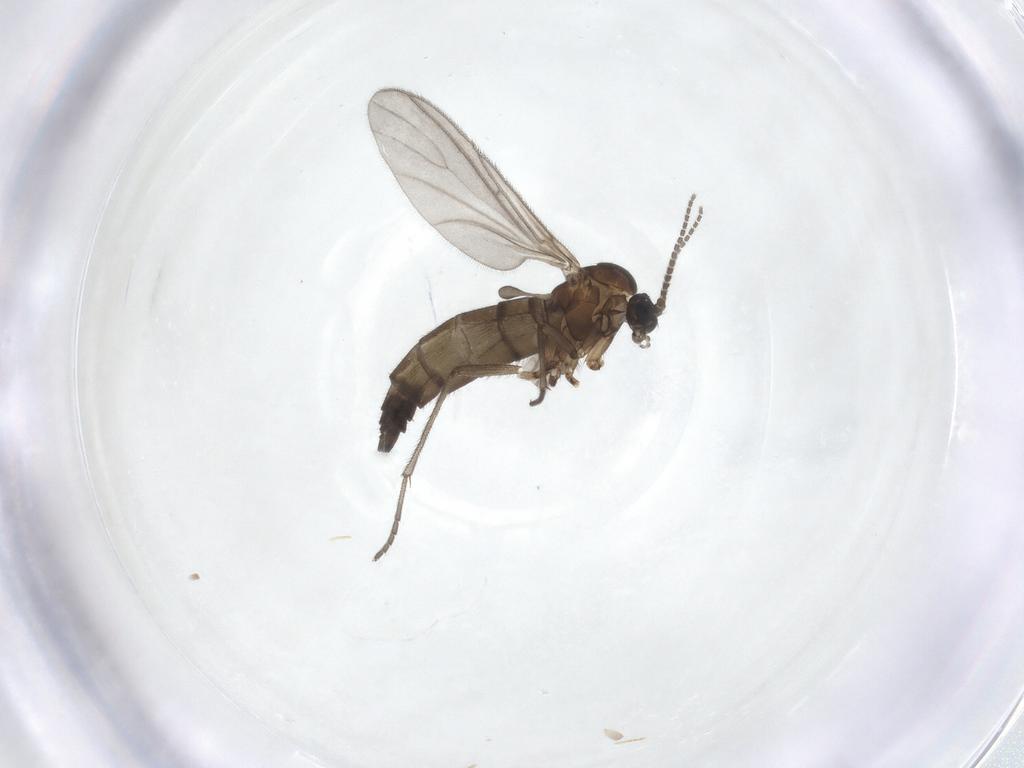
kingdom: Animalia
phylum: Arthropoda
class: Insecta
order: Diptera
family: Sciaridae
